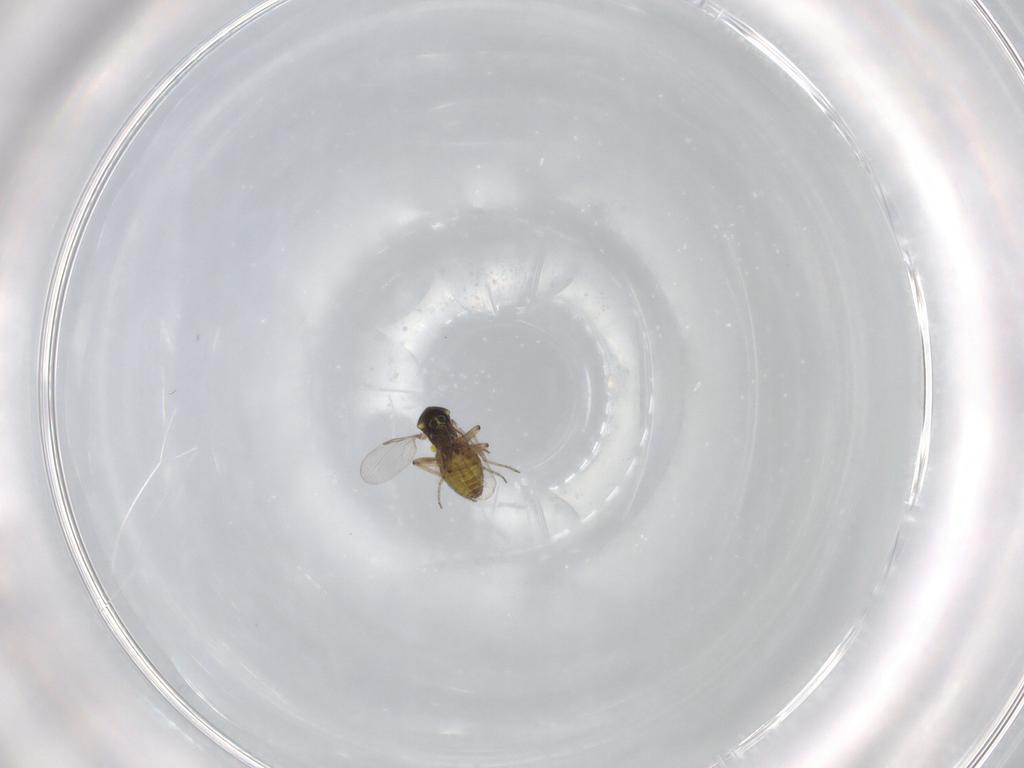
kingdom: Animalia
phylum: Arthropoda
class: Insecta
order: Diptera
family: Ceratopogonidae
